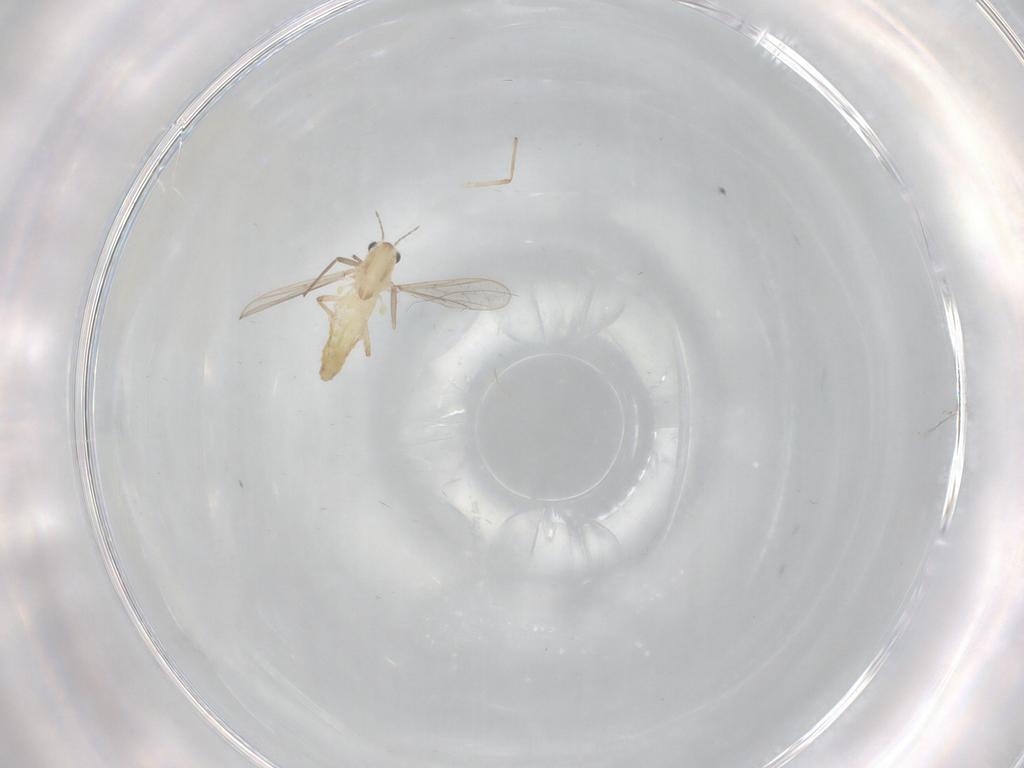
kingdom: Animalia
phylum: Arthropoda
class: Insecta
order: Diptera
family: Chironomidae
